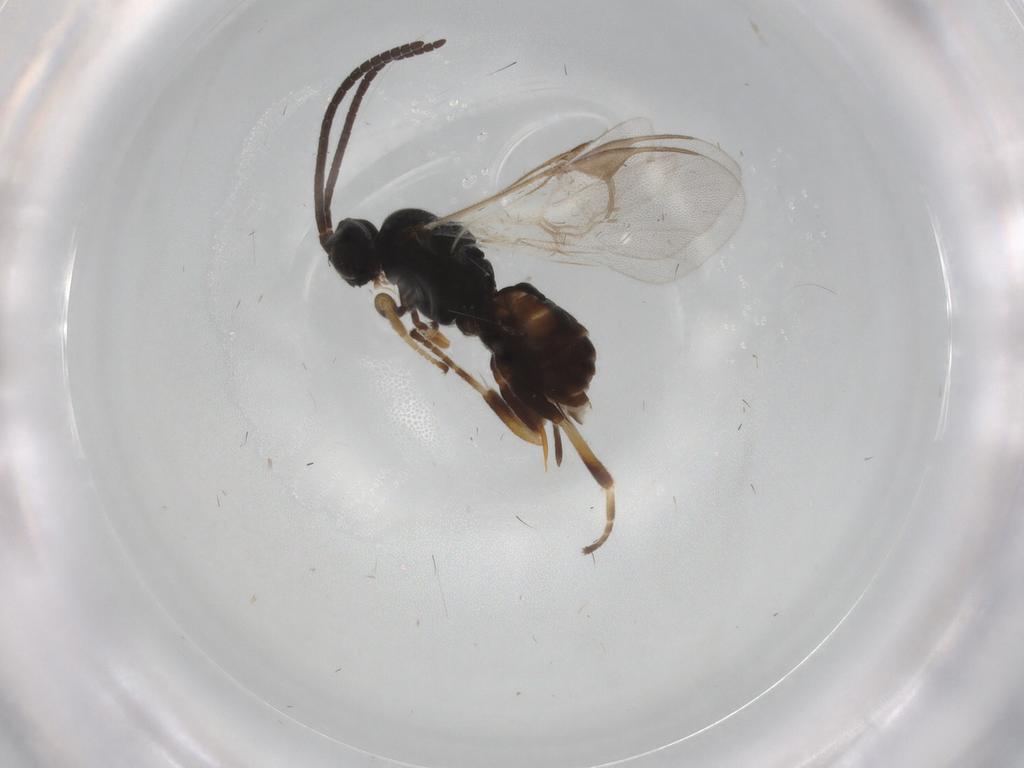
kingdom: Animalia
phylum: Arthropoda
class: Insecta
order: Hymenoptera
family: Braconidae
